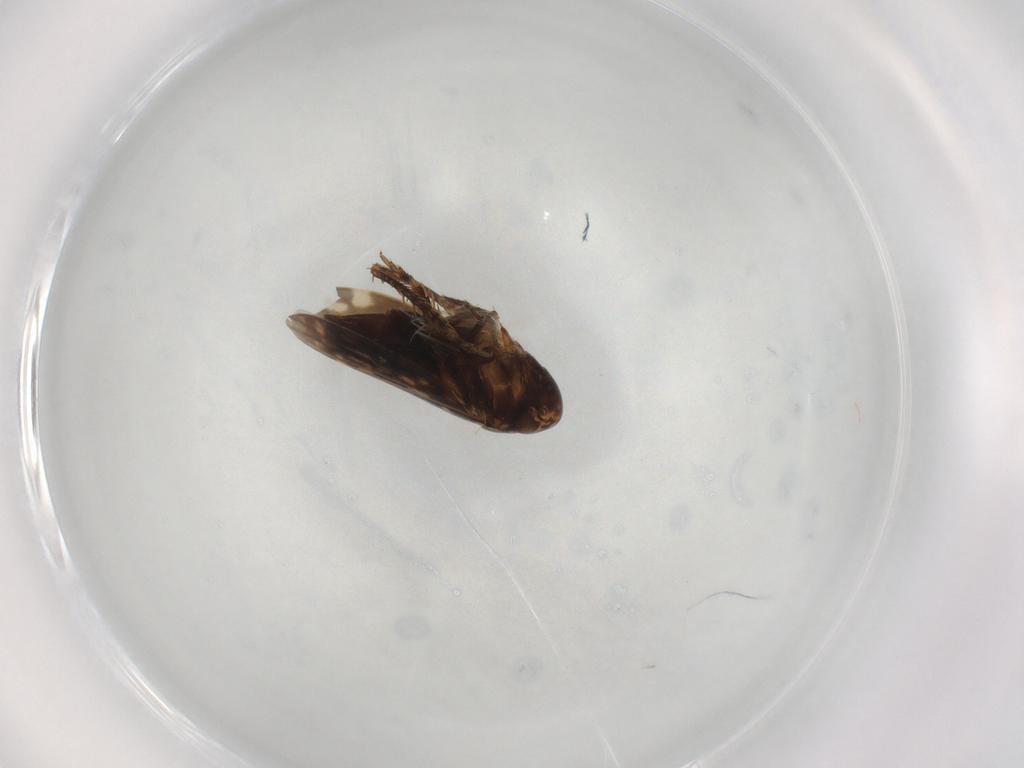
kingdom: Animalia
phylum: Arthropoda
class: Insecta
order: Hemiptera
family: Cicadellidae
